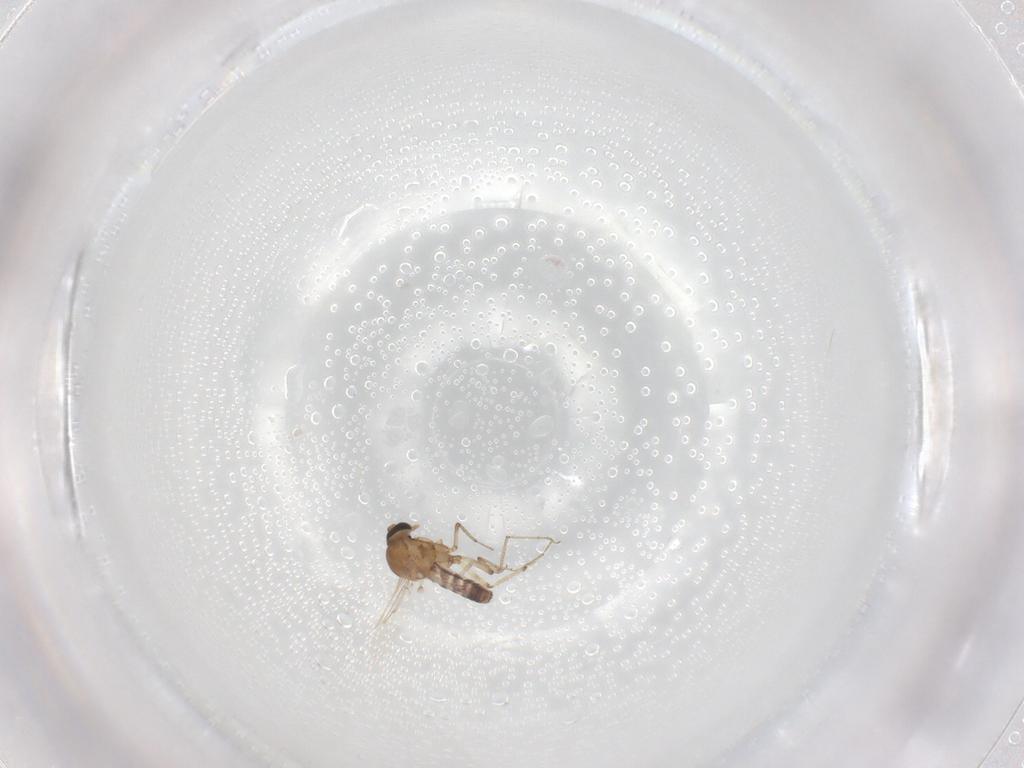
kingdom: Animalia
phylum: Arthropoda
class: Insecta
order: Diptera
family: Ceratopogonidae
